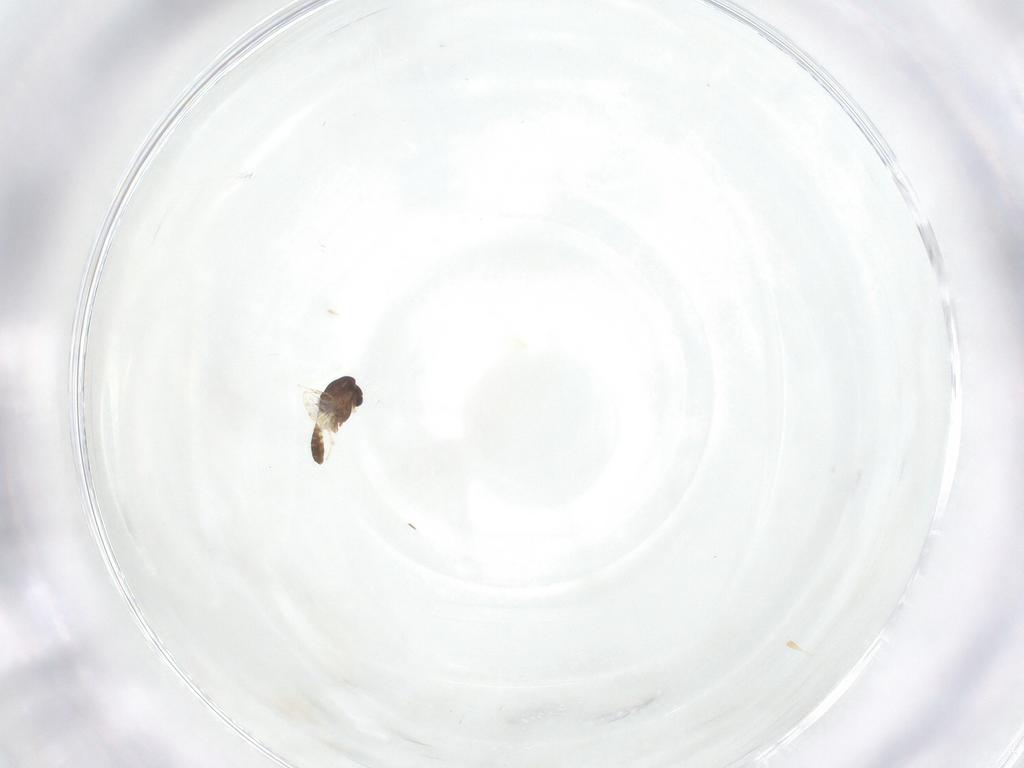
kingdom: Animalia
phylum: Arthropoda
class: Insecta
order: Diptera
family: Chironomidae
